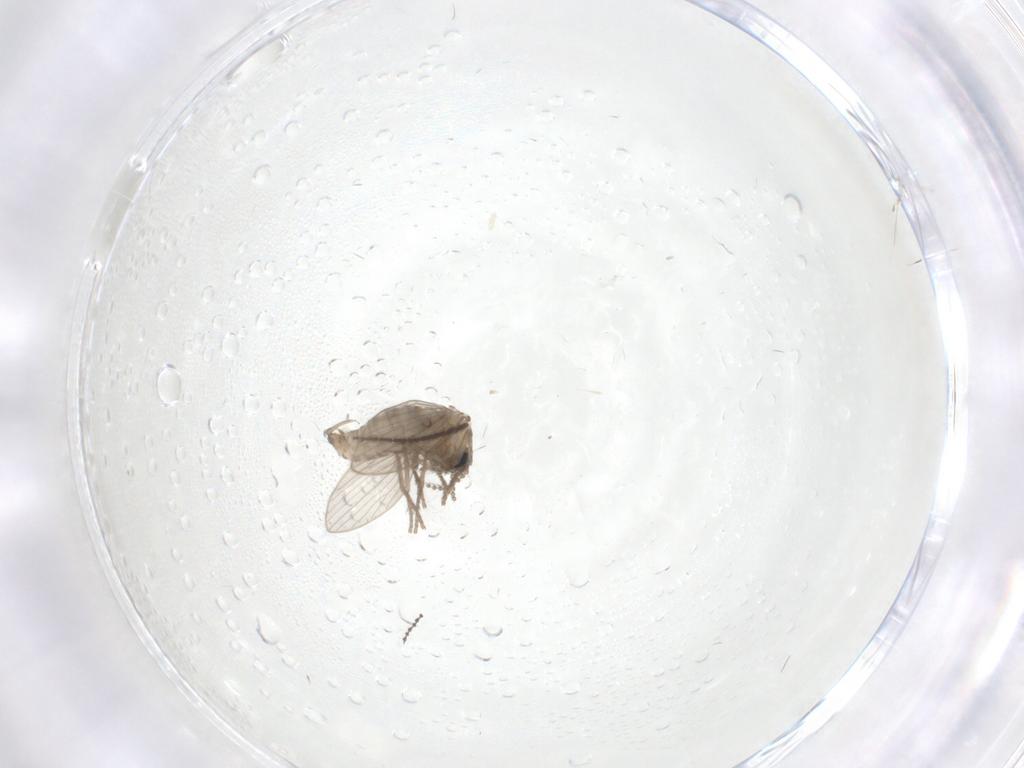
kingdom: Animalia
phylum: Arthropoda
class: Insecta
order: Diptera
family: Psychodidae
